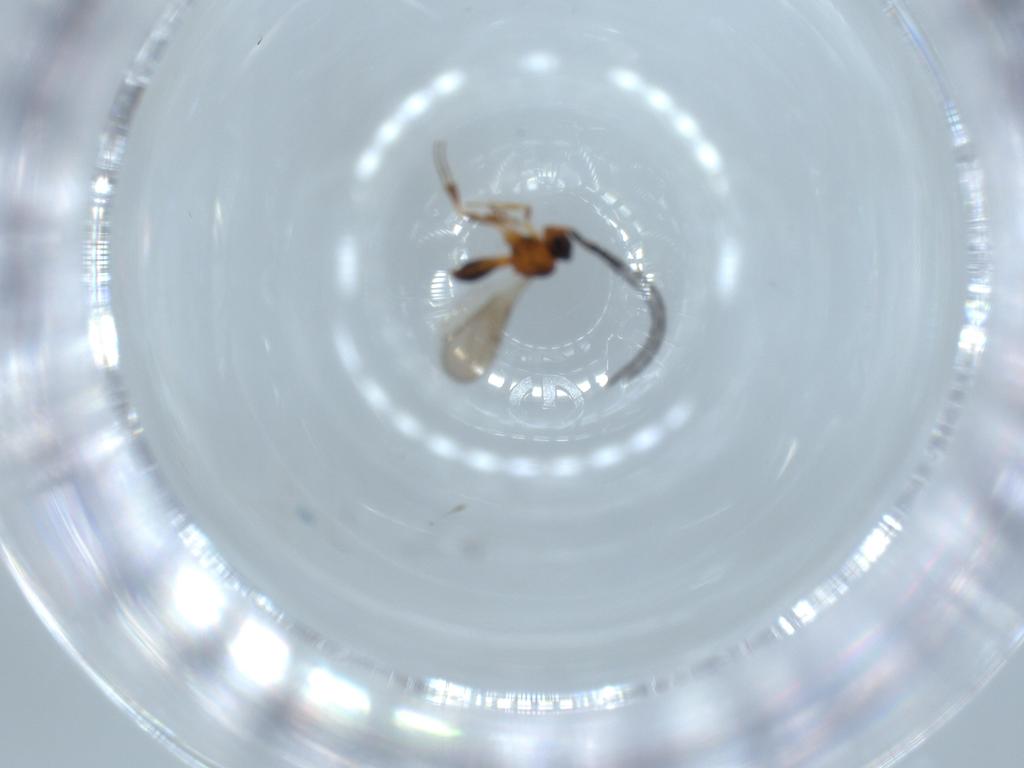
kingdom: Animalia
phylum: Arthropoda
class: Insecta
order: Hymenoptera
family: Scelionidae
